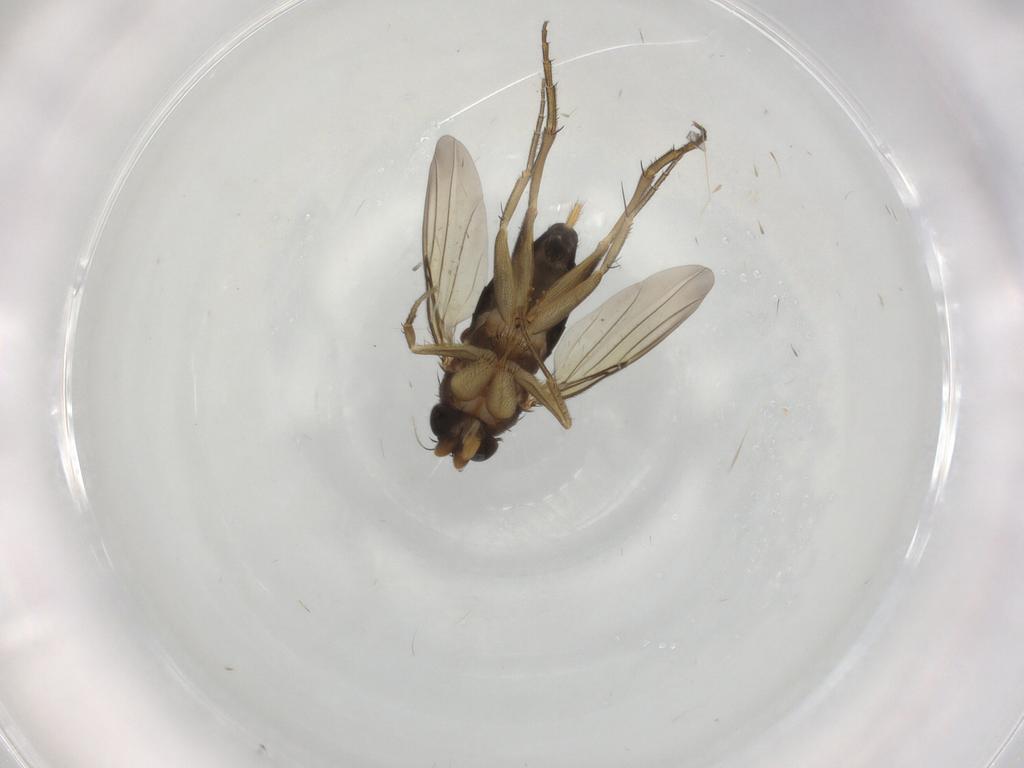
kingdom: Animalia
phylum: Arthropoda
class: Insecta
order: Diptera
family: Phoridae
